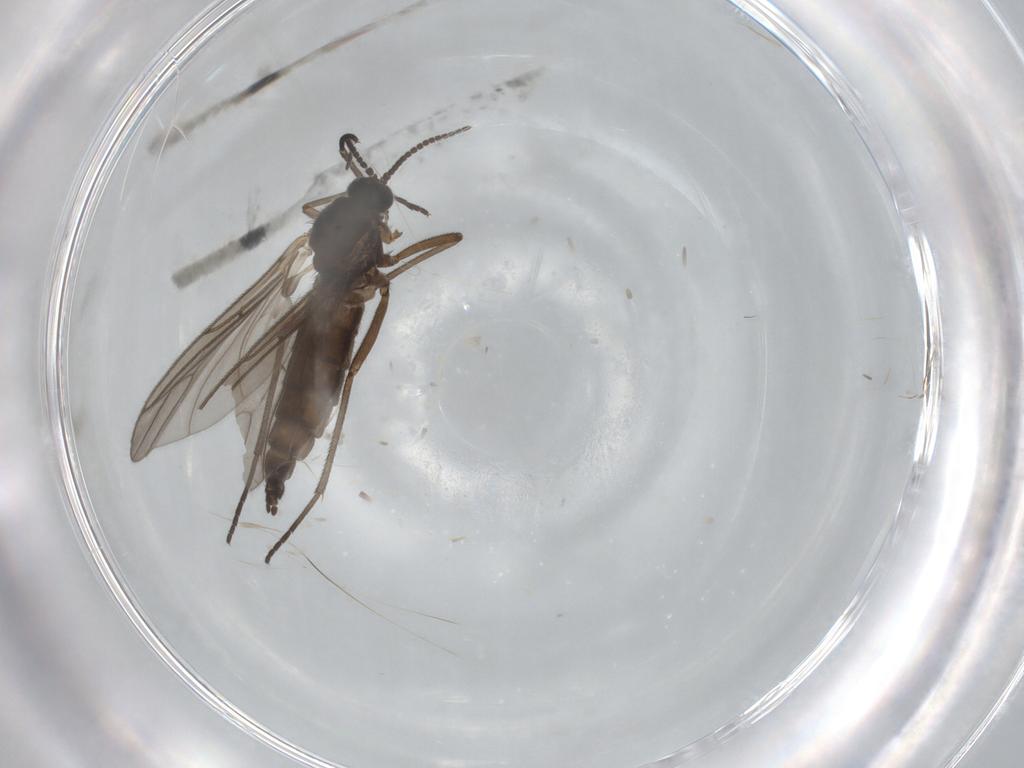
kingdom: Animalia
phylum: Arthropoda
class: Insecta
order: Diptera
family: Sciaridae
